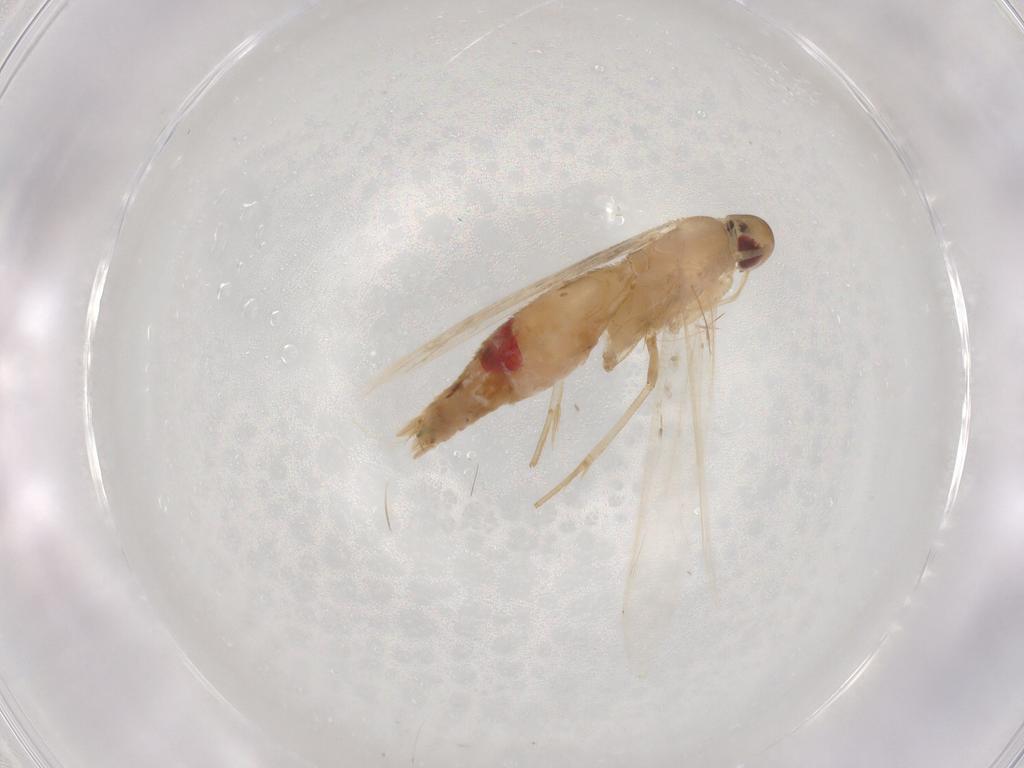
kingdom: Animalia
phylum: Arthropoda
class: Insecta
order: Lepidoptera
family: Cosmopterigidae
